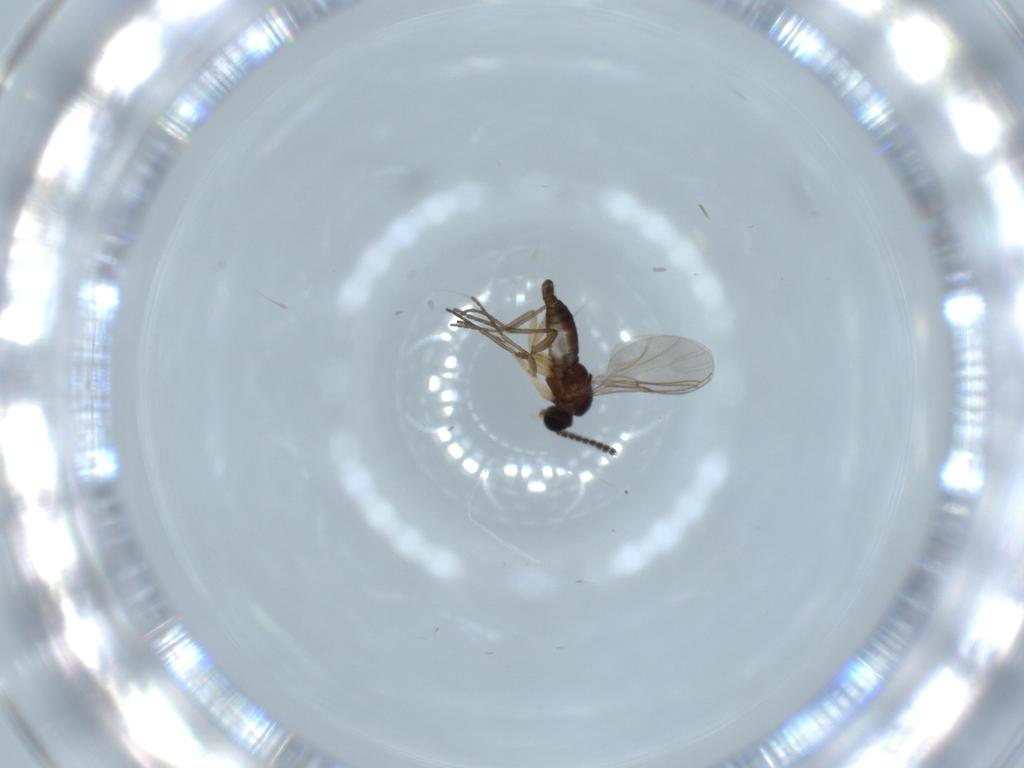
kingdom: Animalia
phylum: Arthropoda
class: Insecta
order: Diptera
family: Sciaridae
